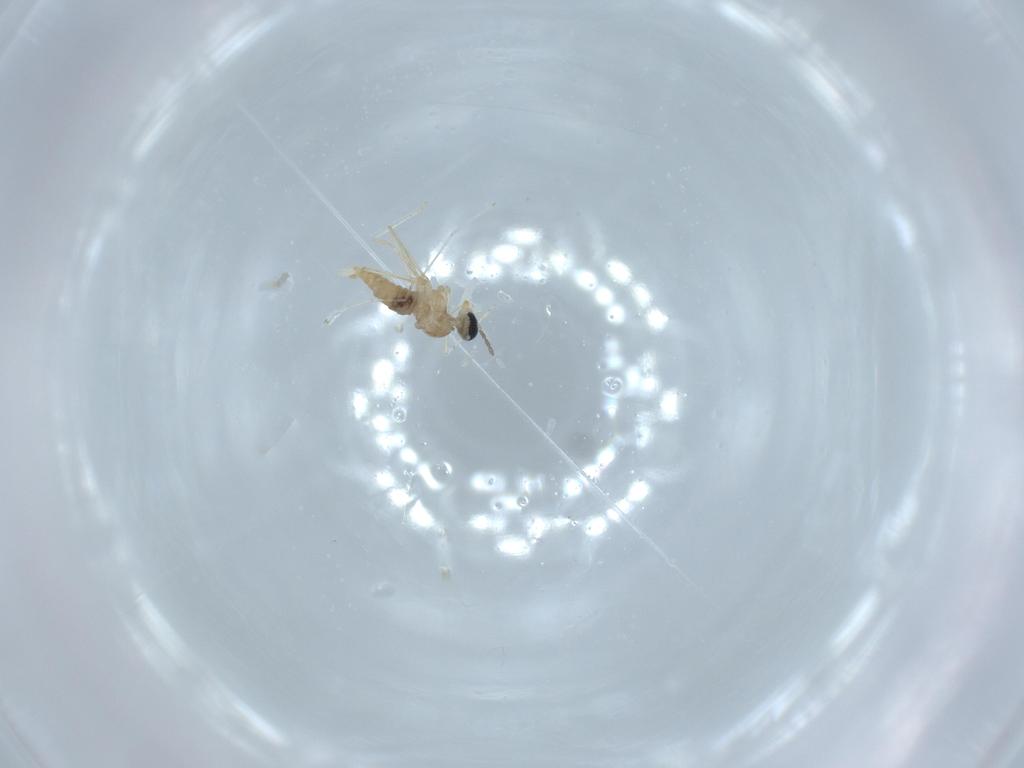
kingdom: Animalia
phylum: Arthropoda
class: Insecta
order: Diptera
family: Cecidomyiidae
